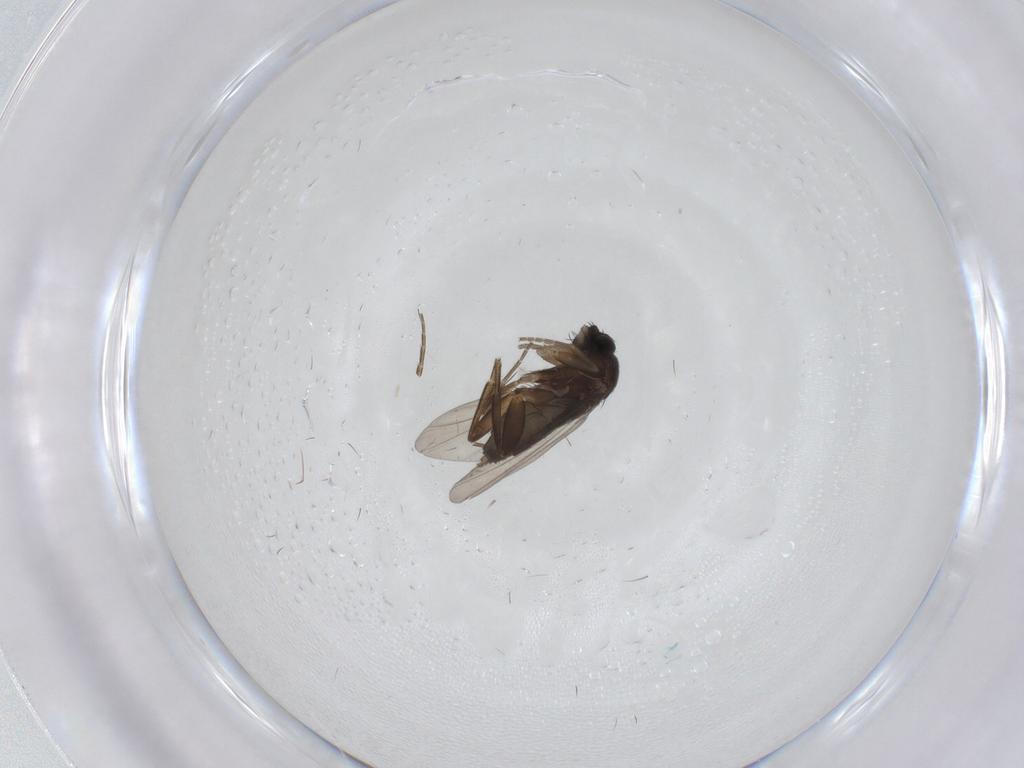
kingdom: Animalia
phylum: Arthropoda
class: Insecta
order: Diptera
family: Phoridae
